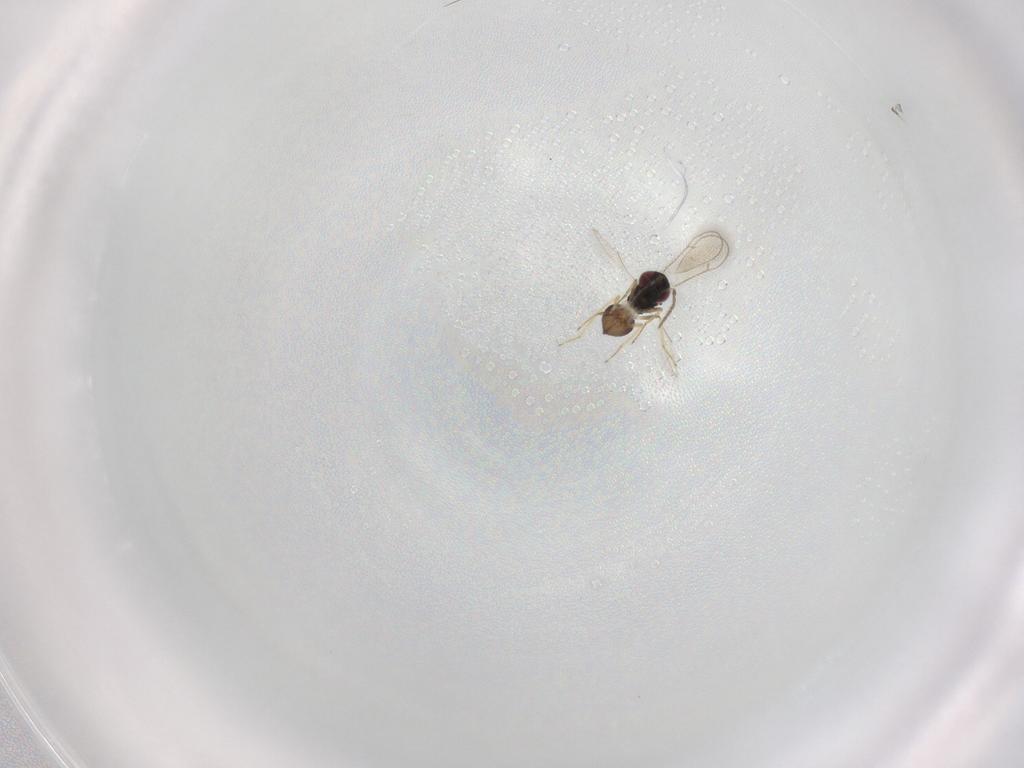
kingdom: Animalia
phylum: Arthropoda
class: Insecta
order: Hymenoptera
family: Eulophidae
